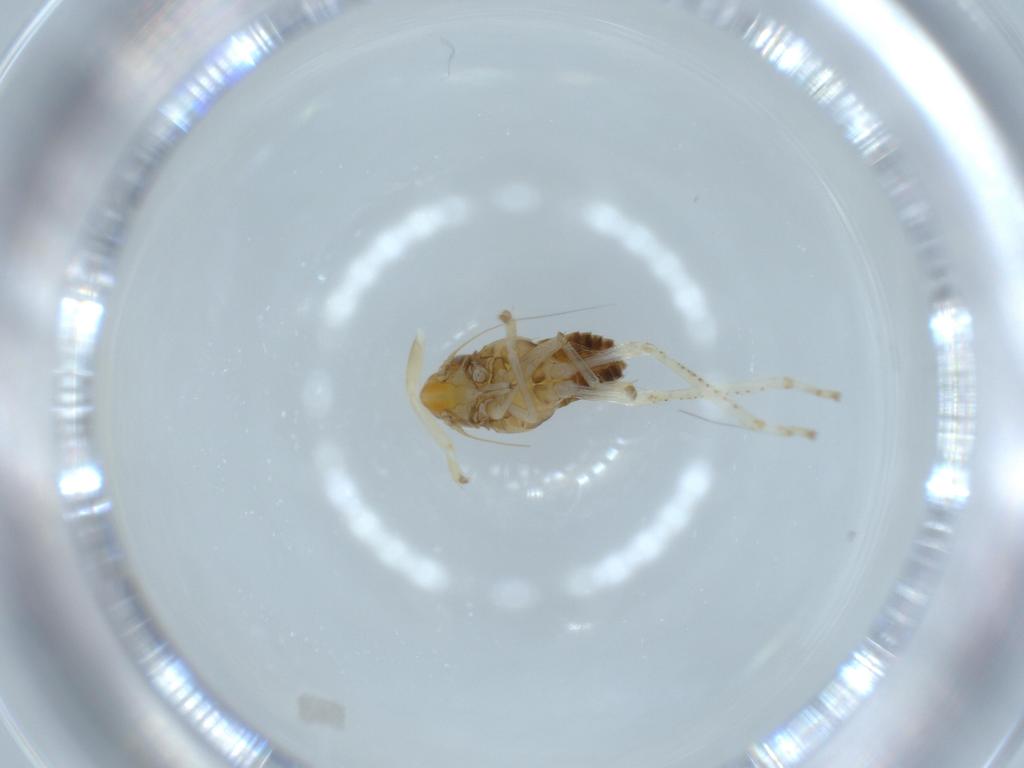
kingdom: Animalia
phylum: Arthropoda
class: Insecta
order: Hemiptera
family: Cicadellidae
